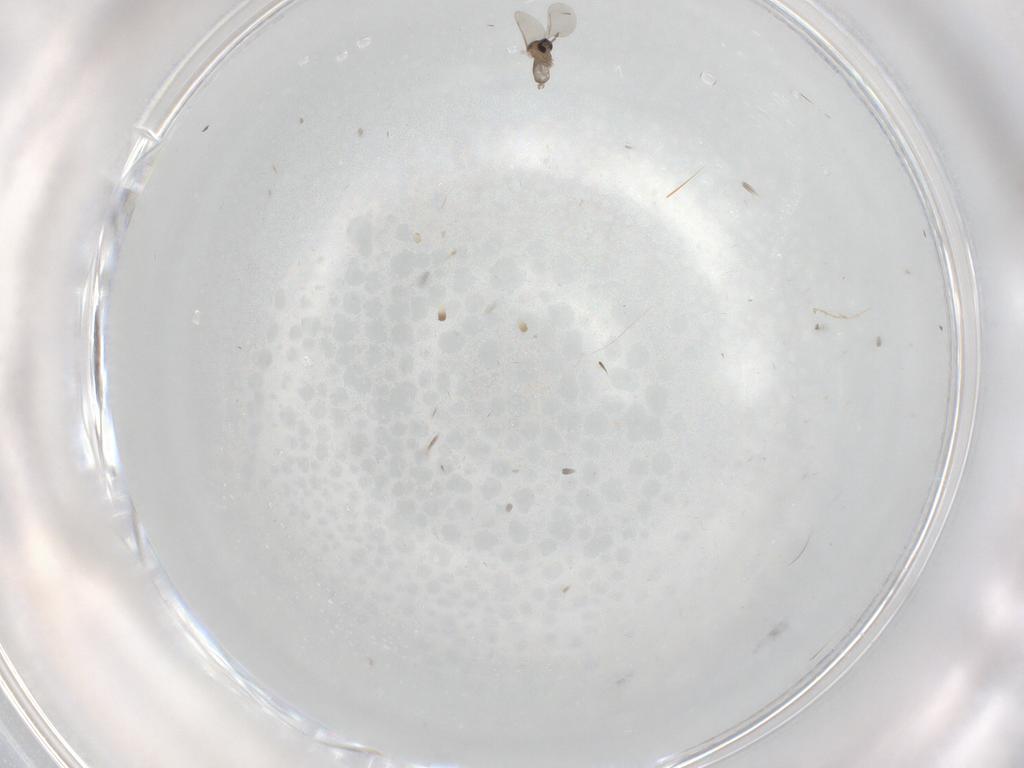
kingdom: Animalia
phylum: Arthropoda
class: Insecta
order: Diptera
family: Cecidomyiidae
